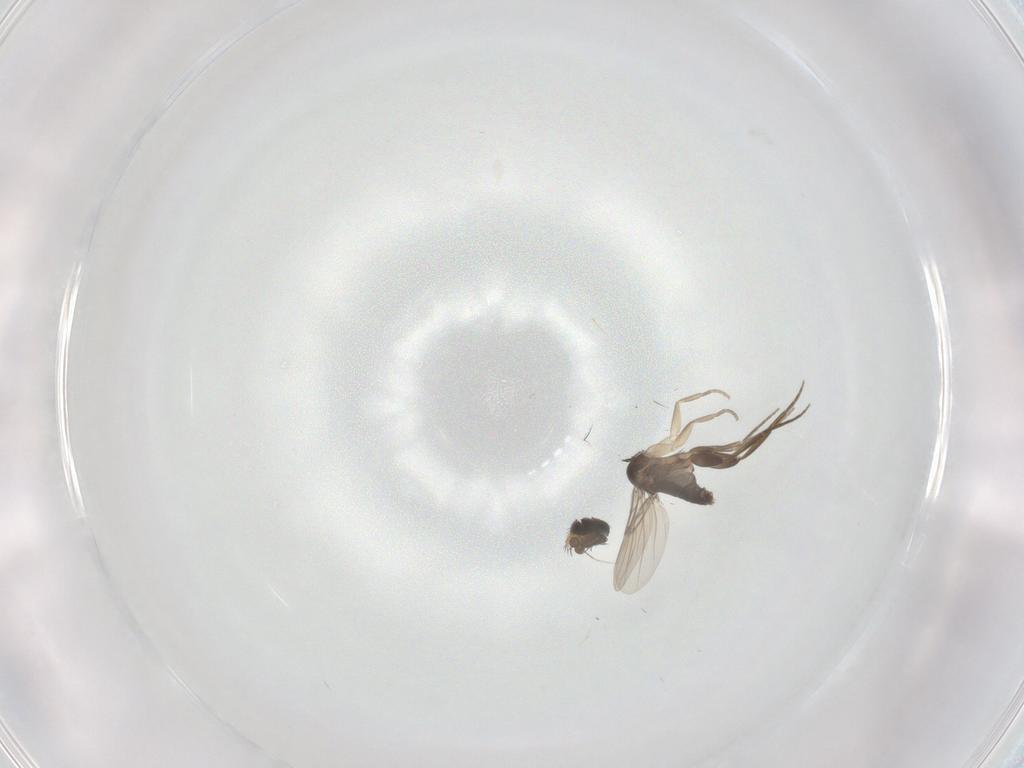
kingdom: Animalia
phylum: Arthropoda
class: Insecta
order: Diptera
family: Phoridae
